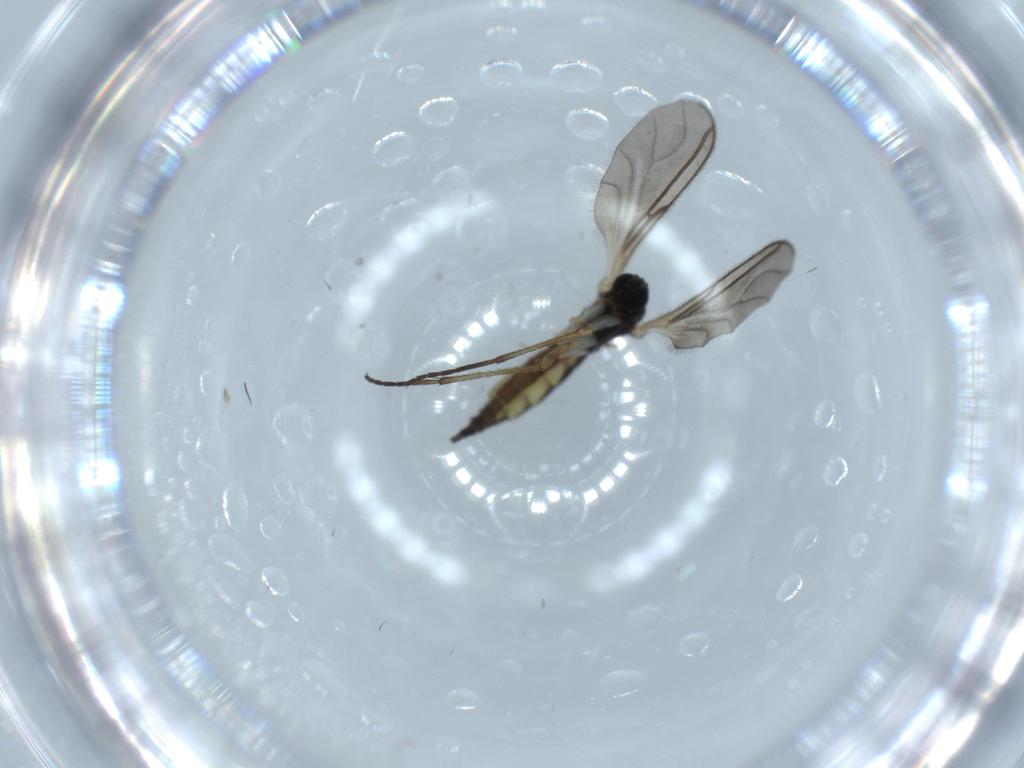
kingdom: Animalia
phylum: Arthropoda
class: Insecta
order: Diptera
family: Sciaridae
